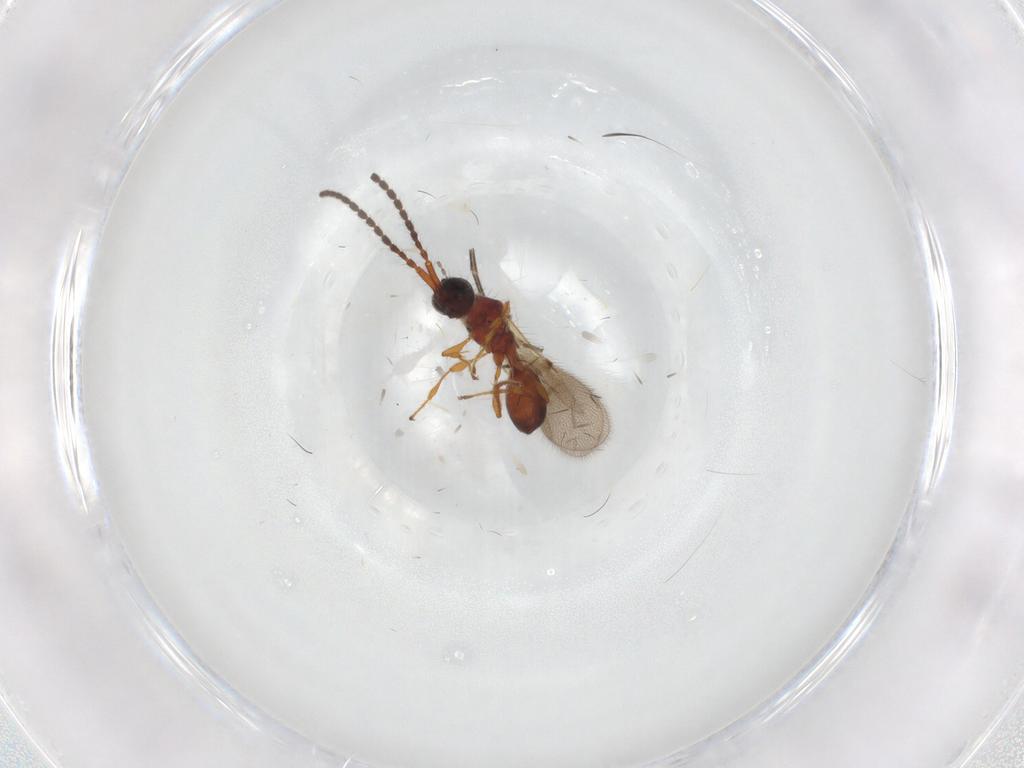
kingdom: Animalia
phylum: Arthropoda
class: Insecta
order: Hymenoptera
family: Diapriidae
